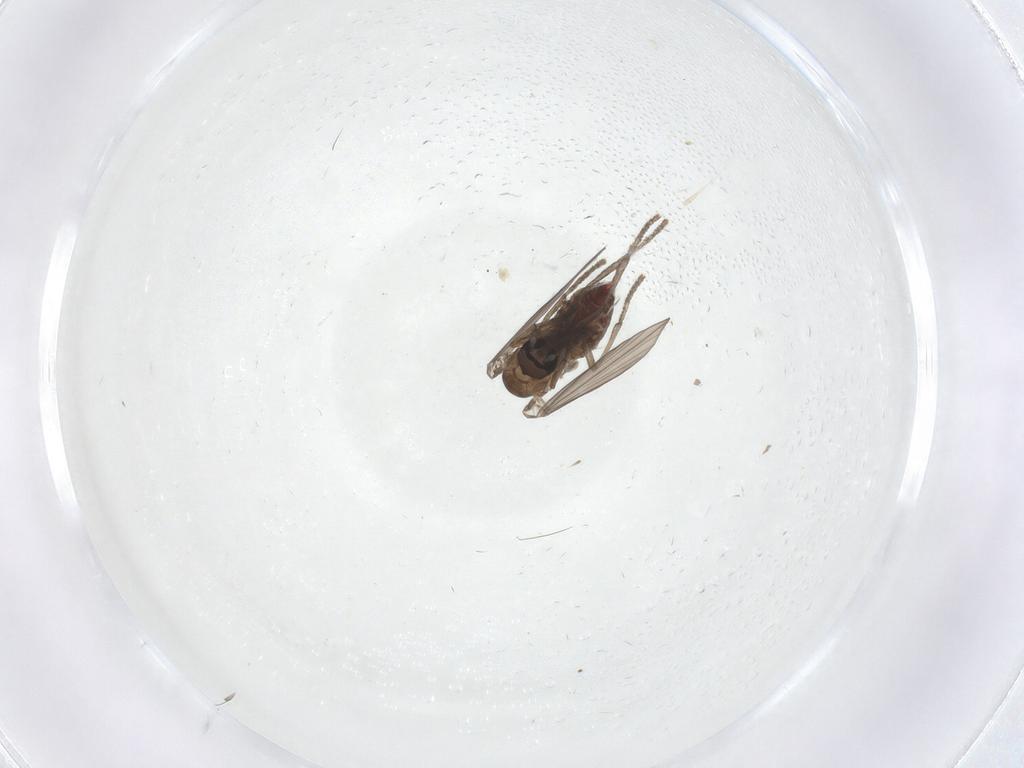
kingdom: Animalia
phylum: Arthropoda
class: Insecta
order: Diptera
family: Psychodidae
